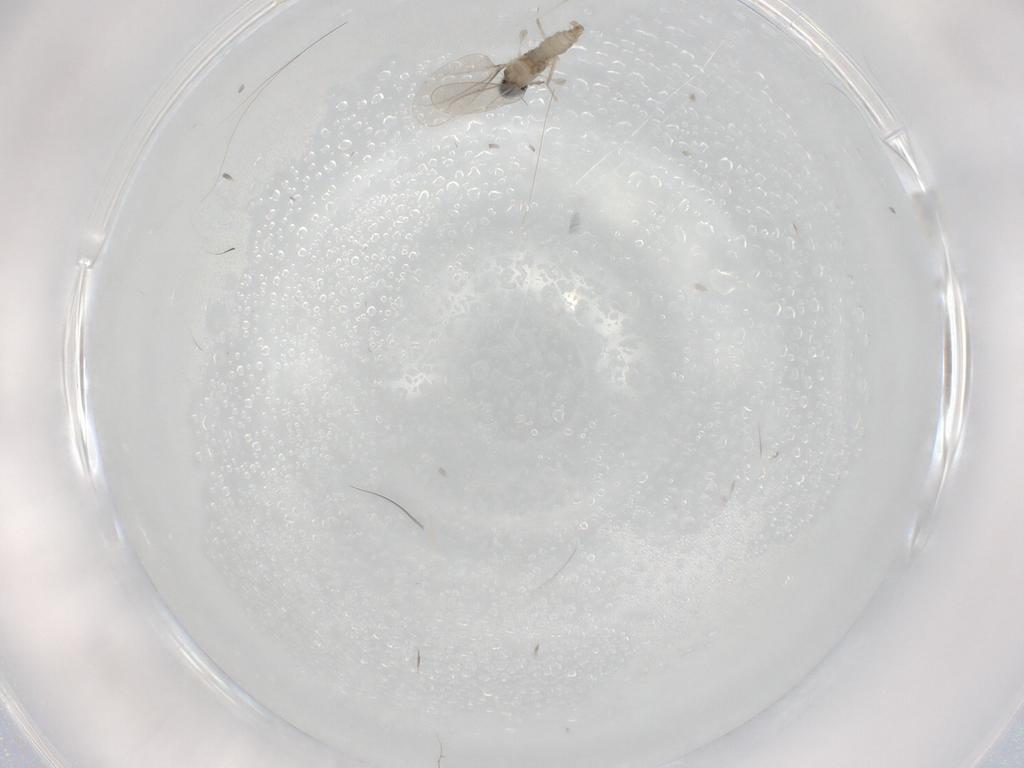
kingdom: Animalia
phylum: Arthropoda
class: Insecta
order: Diptera
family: Cecidomyiidae
